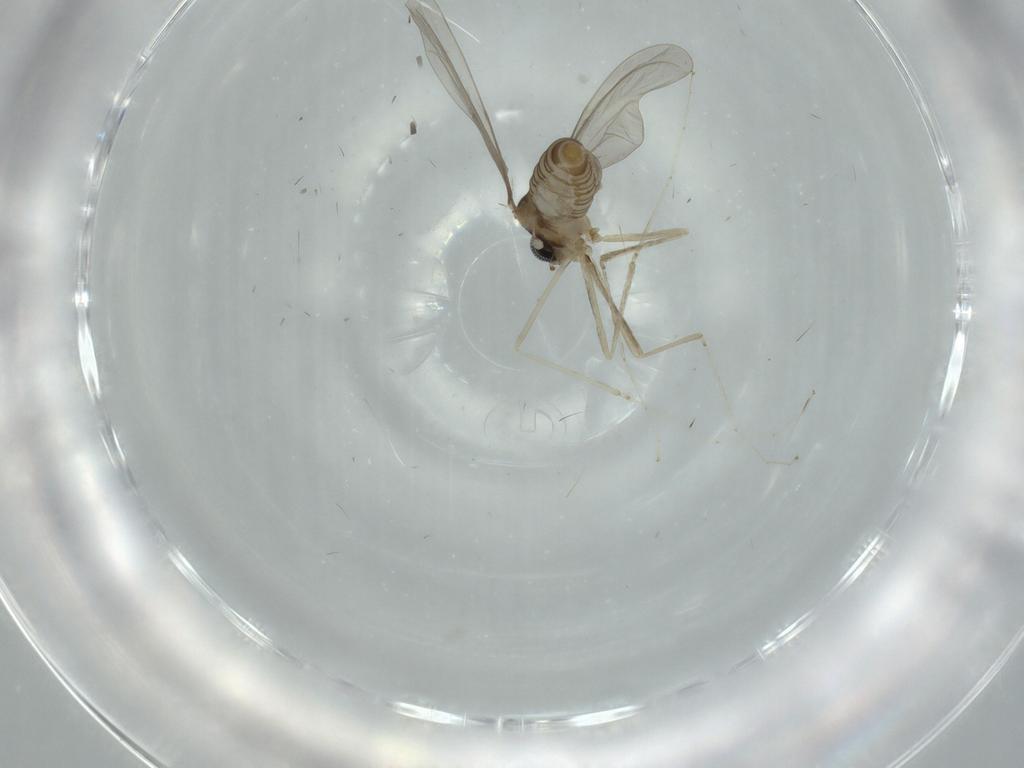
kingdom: Animalia
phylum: Arthropoda
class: Insecta
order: Diptera
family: Cecidomyiidae
